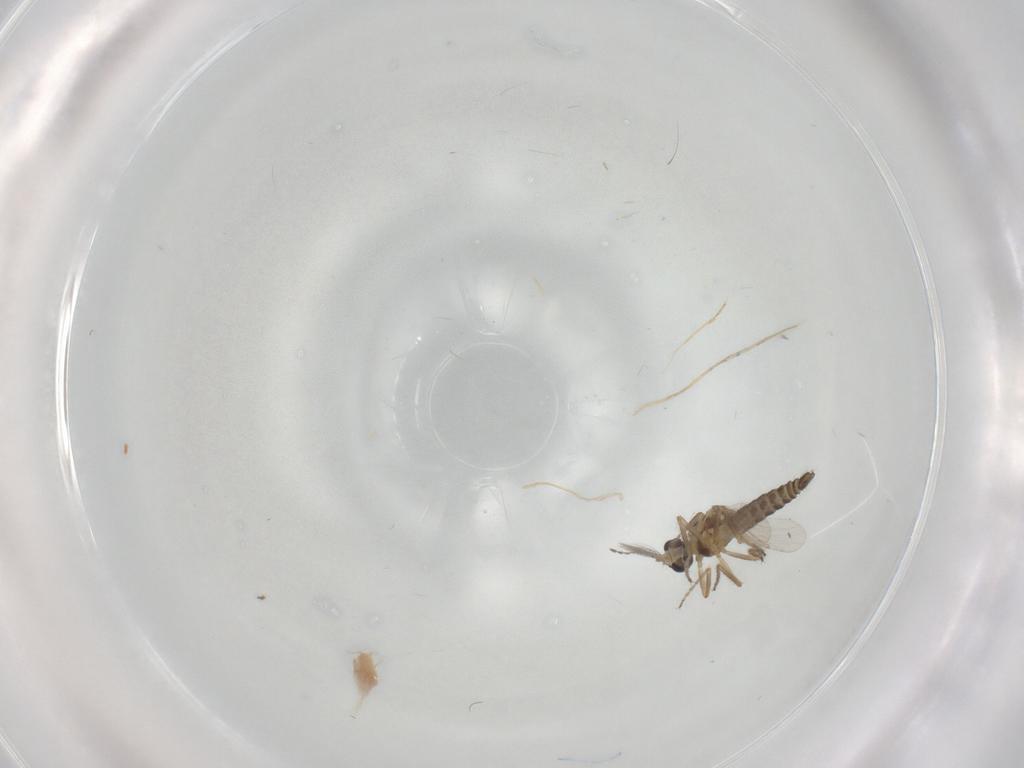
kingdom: Animalia
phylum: Arthropoda
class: Insecta
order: Diptera
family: Ceratopogonidae
